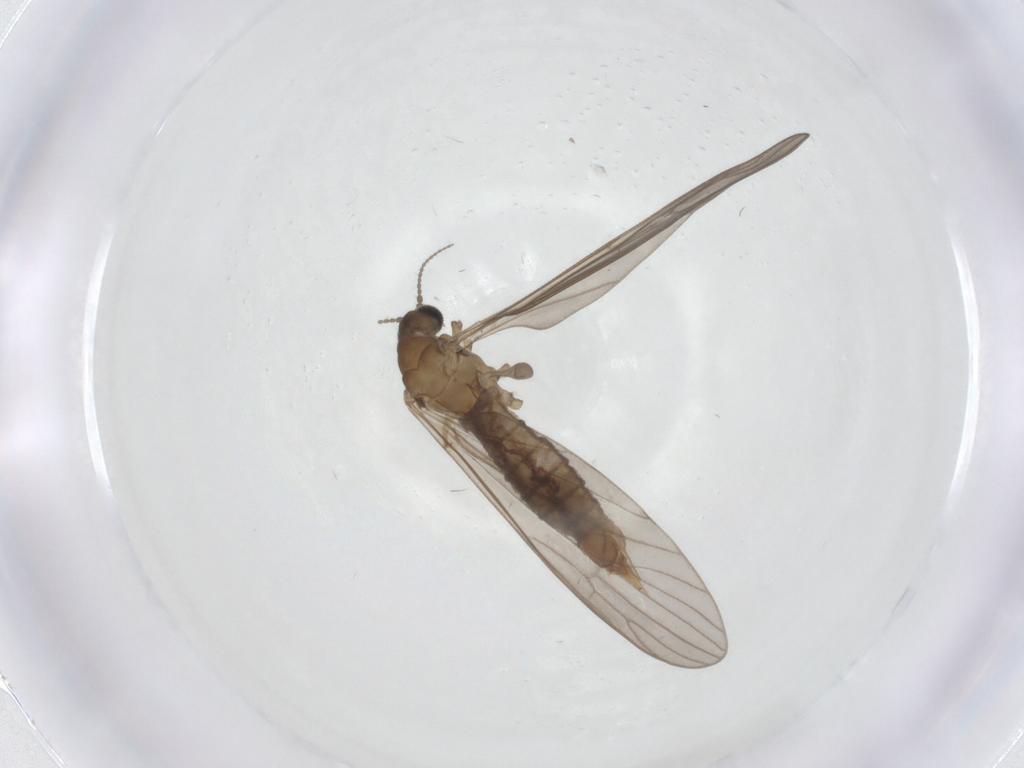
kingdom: Animalia
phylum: Arthropoda
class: Insecta
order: Diptera
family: Limoniidae
